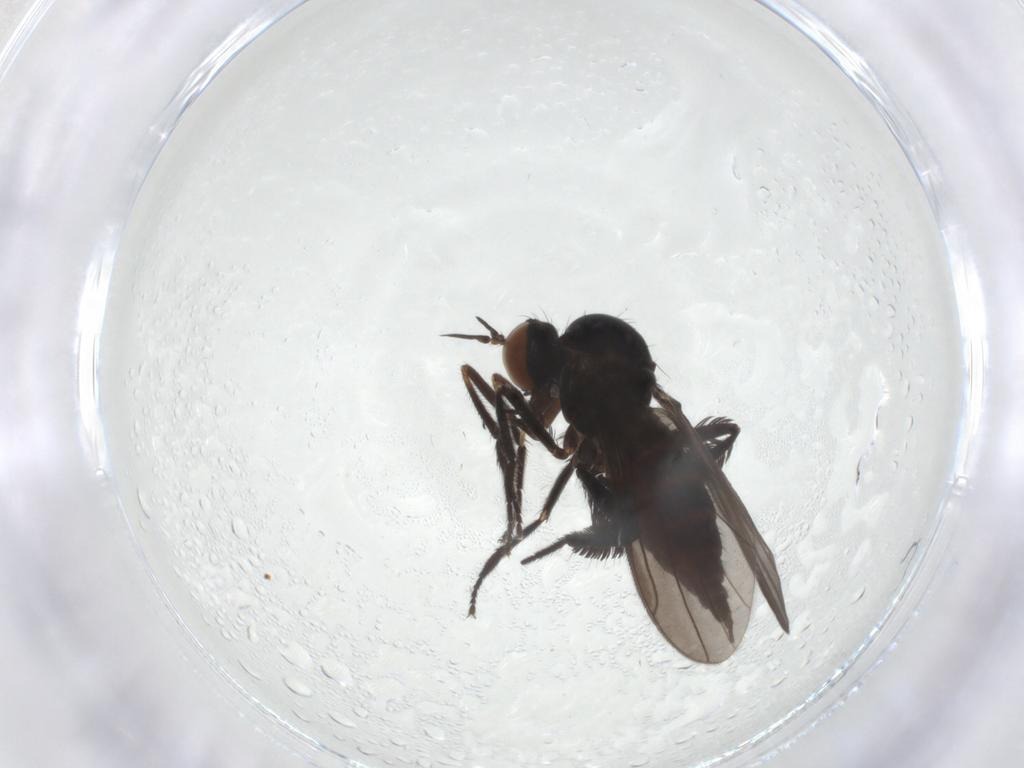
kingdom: Animalia
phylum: Arthropoda
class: Insecta
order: Diptera
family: Empididae
